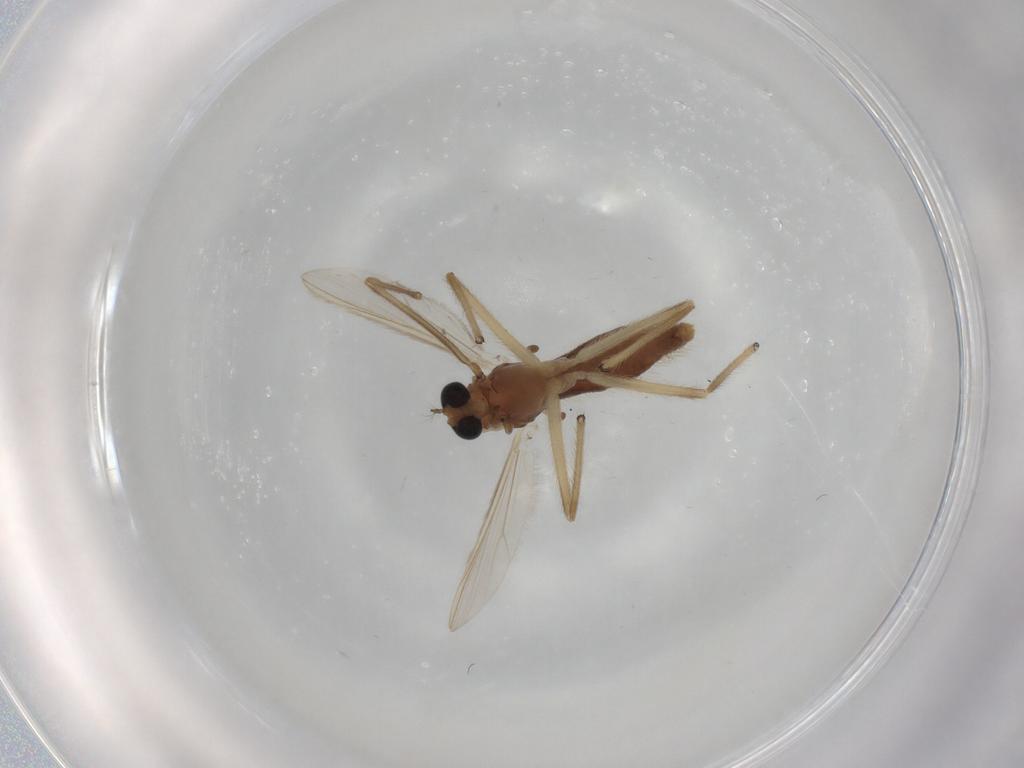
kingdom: Animalia
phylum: Arthropoda
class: Insecta
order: Diptera
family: Chironomidae
